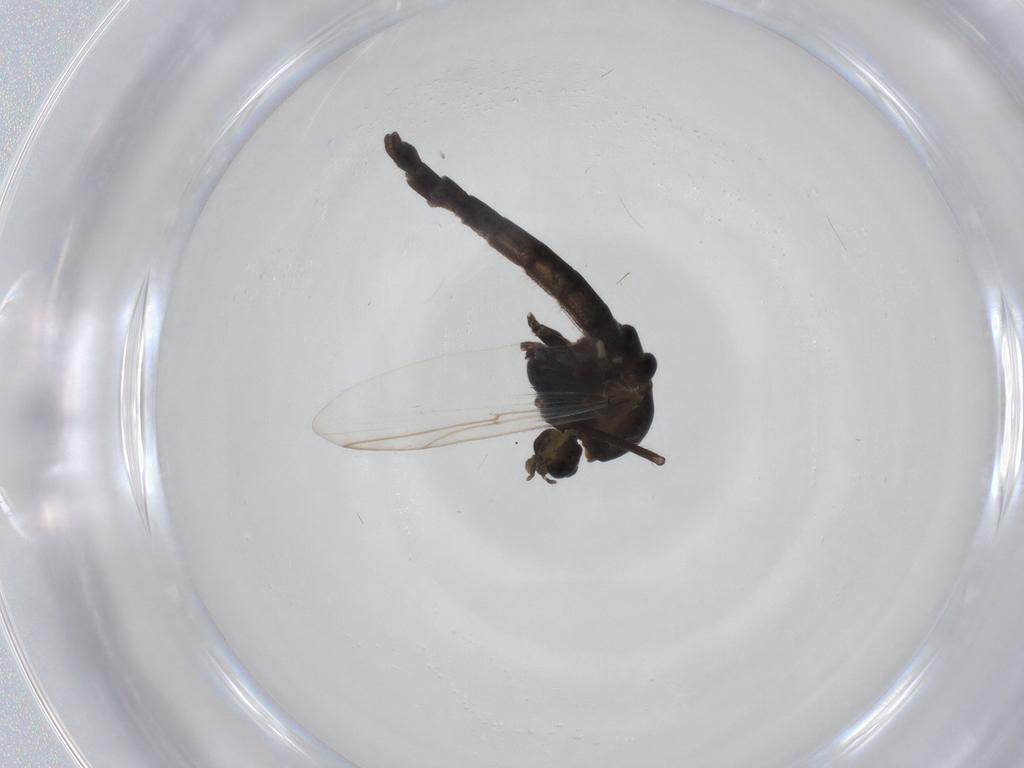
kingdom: Animalia
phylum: Arthropoda
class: Insecta
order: Diptera
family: Chironomidae
